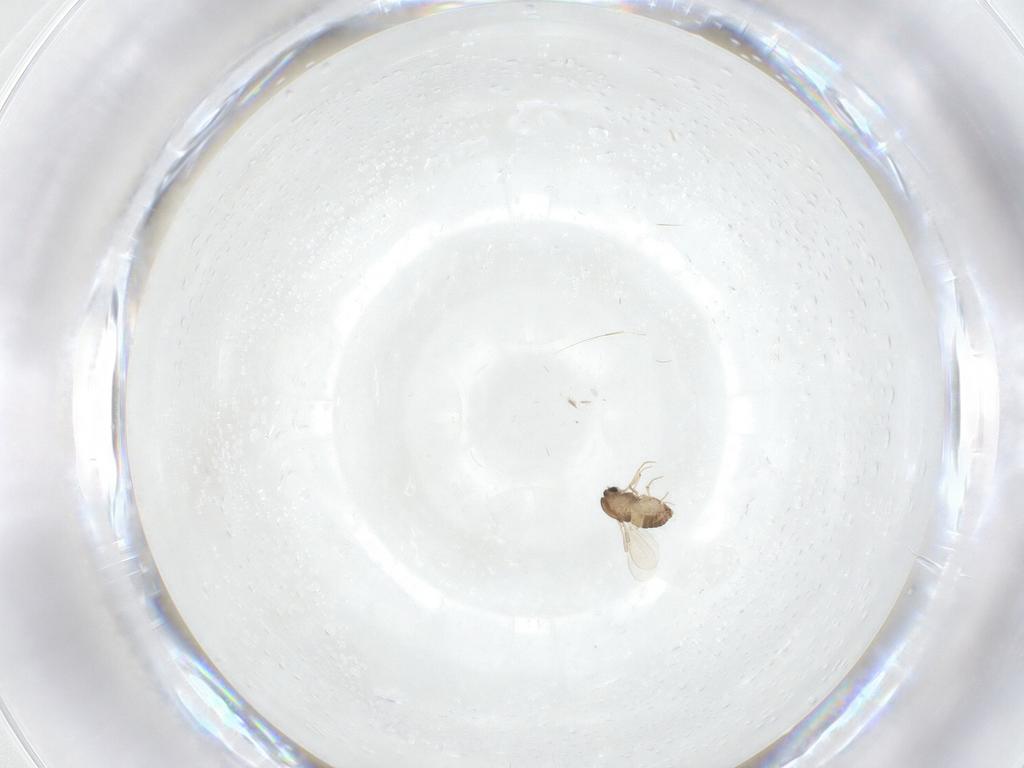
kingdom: Animalia
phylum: Arthropoda
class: Insecta
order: Diptera
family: Chironomidae
